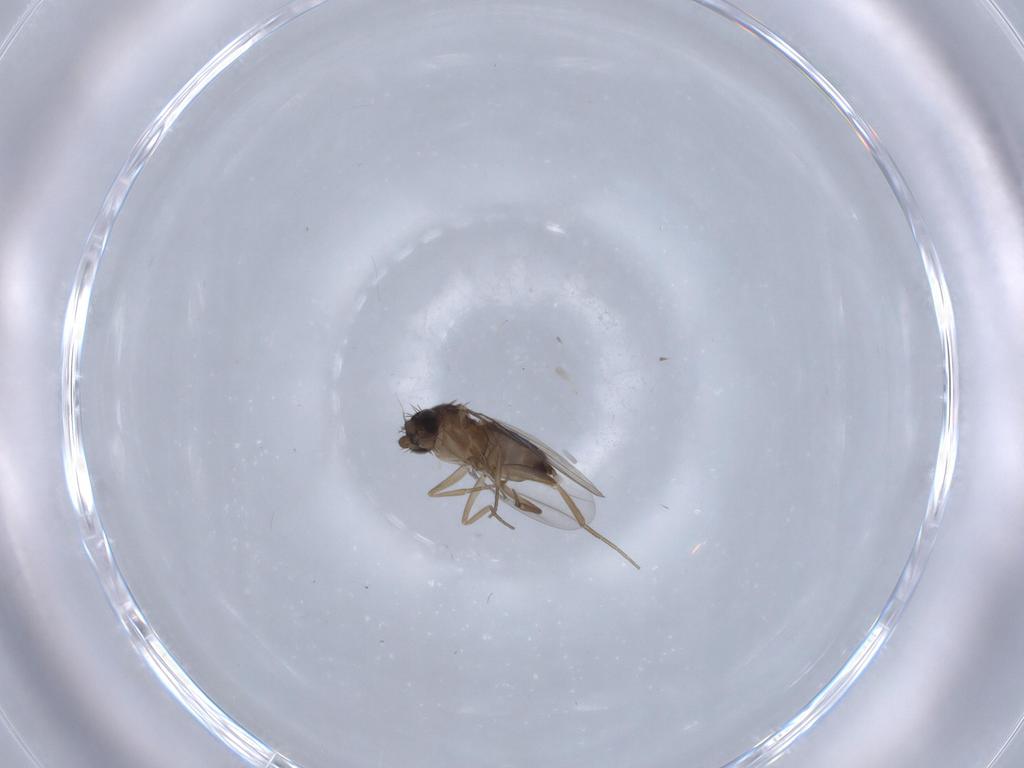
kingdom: Animalia
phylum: Arthropoda
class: Insecta
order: Diptera
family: Phoridae
